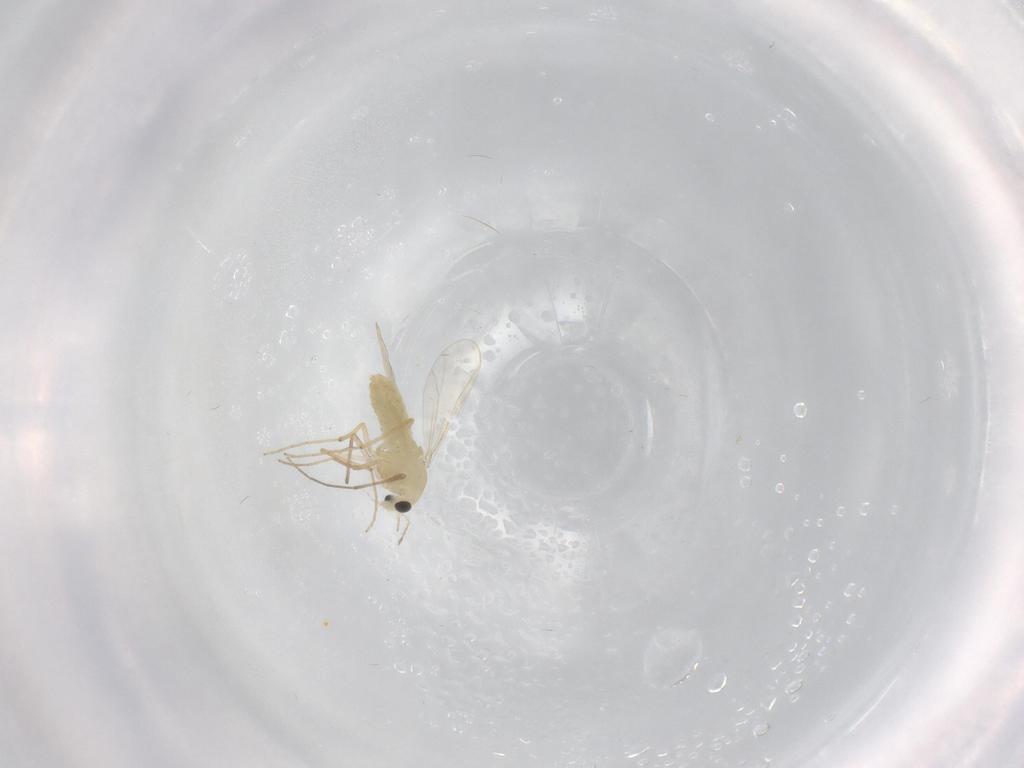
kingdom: Animalia
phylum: Arthropoda
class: Insecta
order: Diptera
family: Chironomidae
